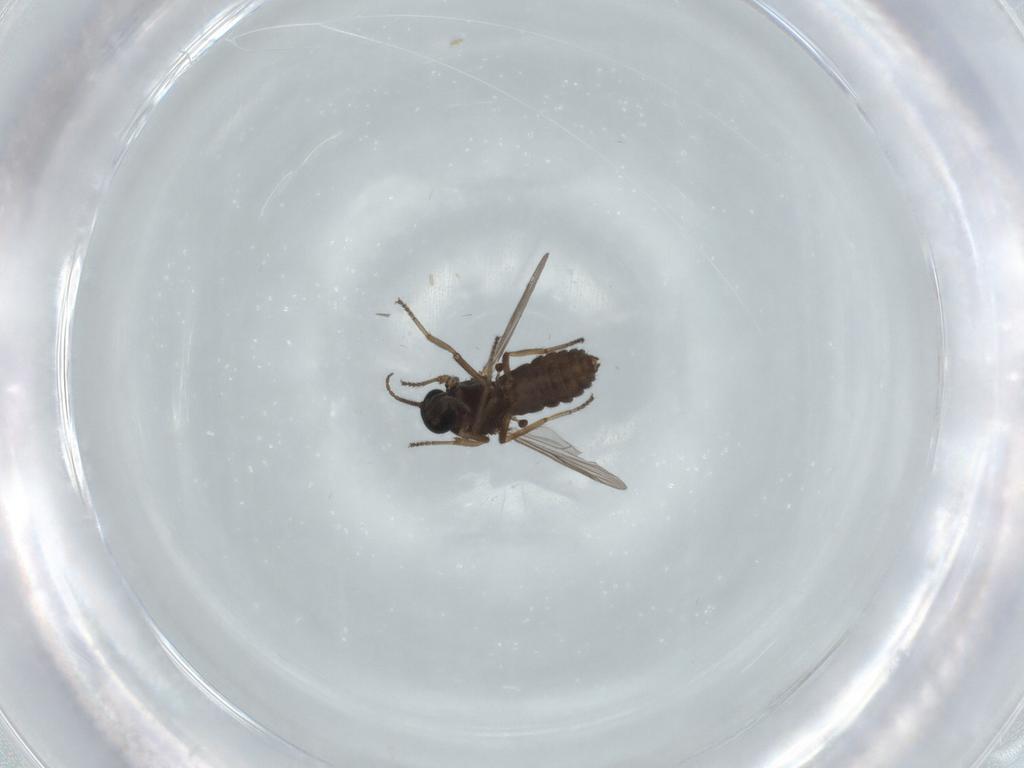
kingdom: Animalia
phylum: Arthropoda
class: Insecta
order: Diptera
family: Ceratopogonidae
